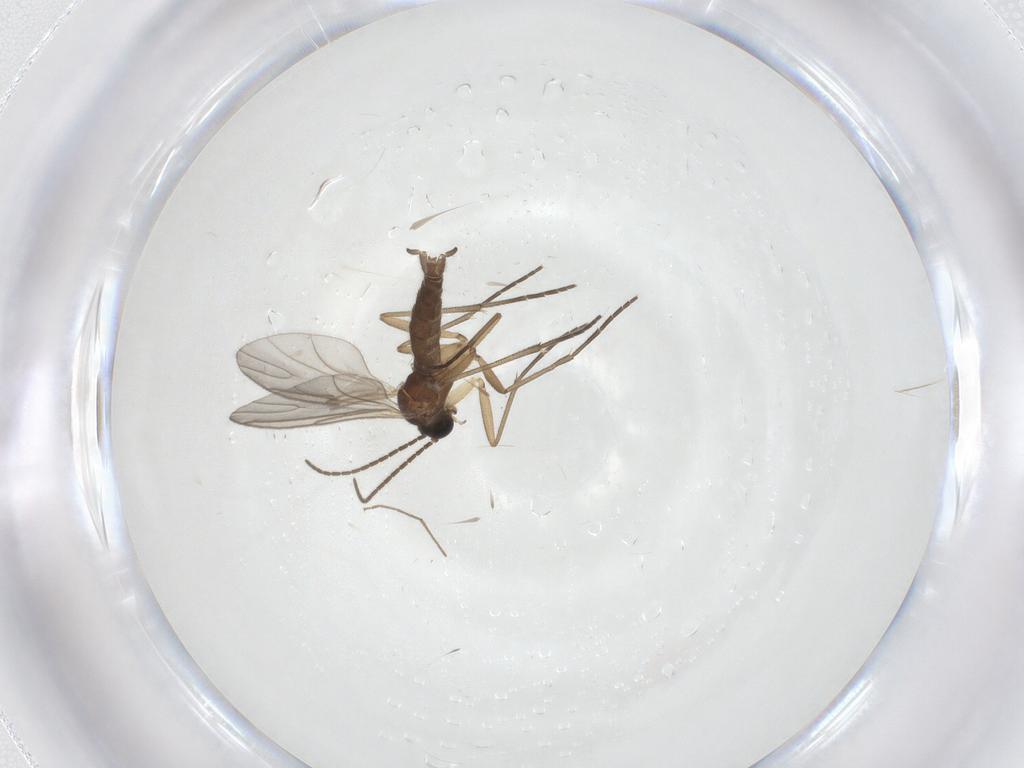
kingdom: Animalia
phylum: Arthropoda
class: Insecta
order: Diptera
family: Sciaridae
